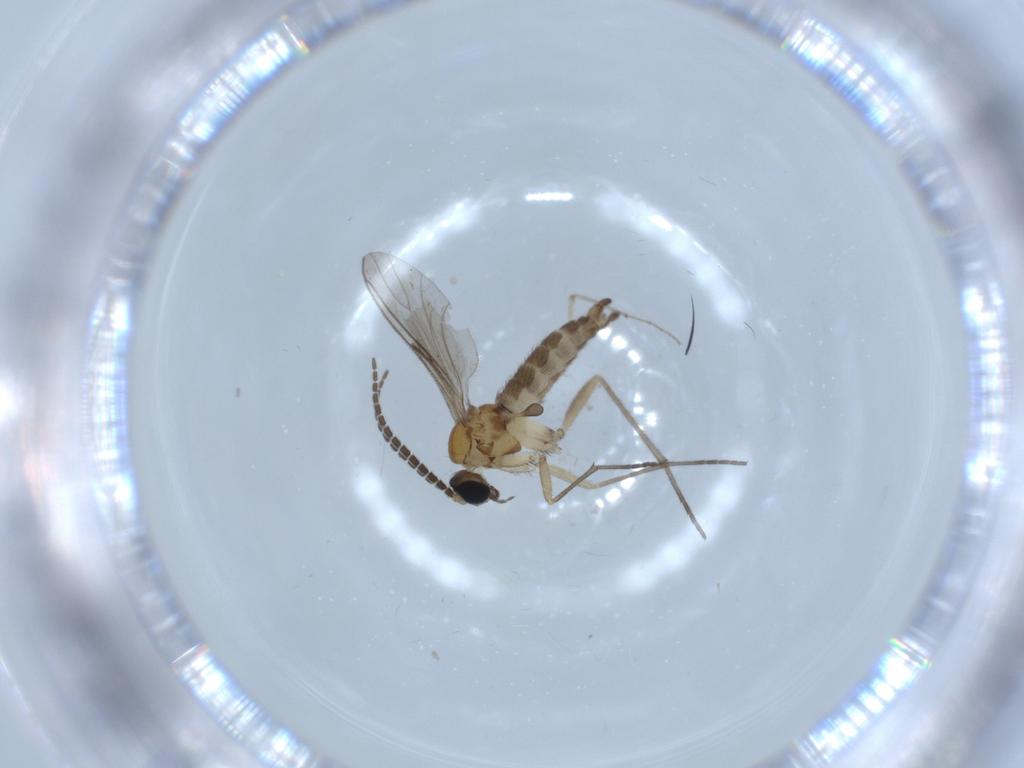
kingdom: Animalia
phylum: Arthropoda
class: Insecta
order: Diptera
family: Sciaridae
